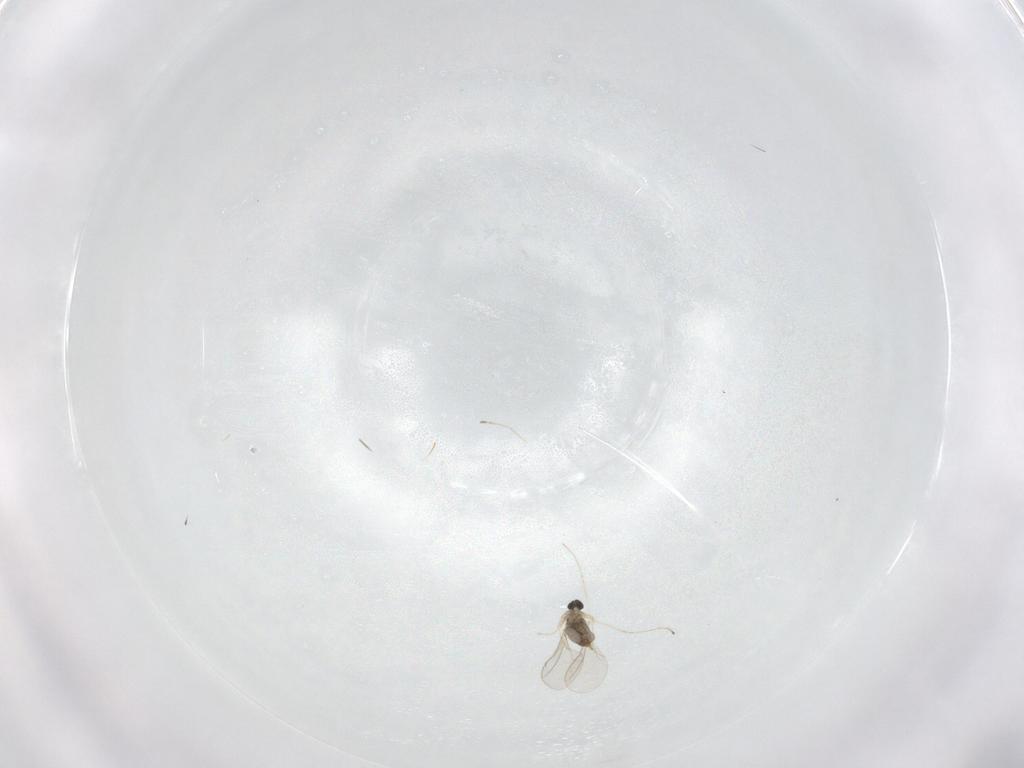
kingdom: Animalia
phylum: Arthropoda
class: Insecta
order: Diptera
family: Cecidomyiidae
